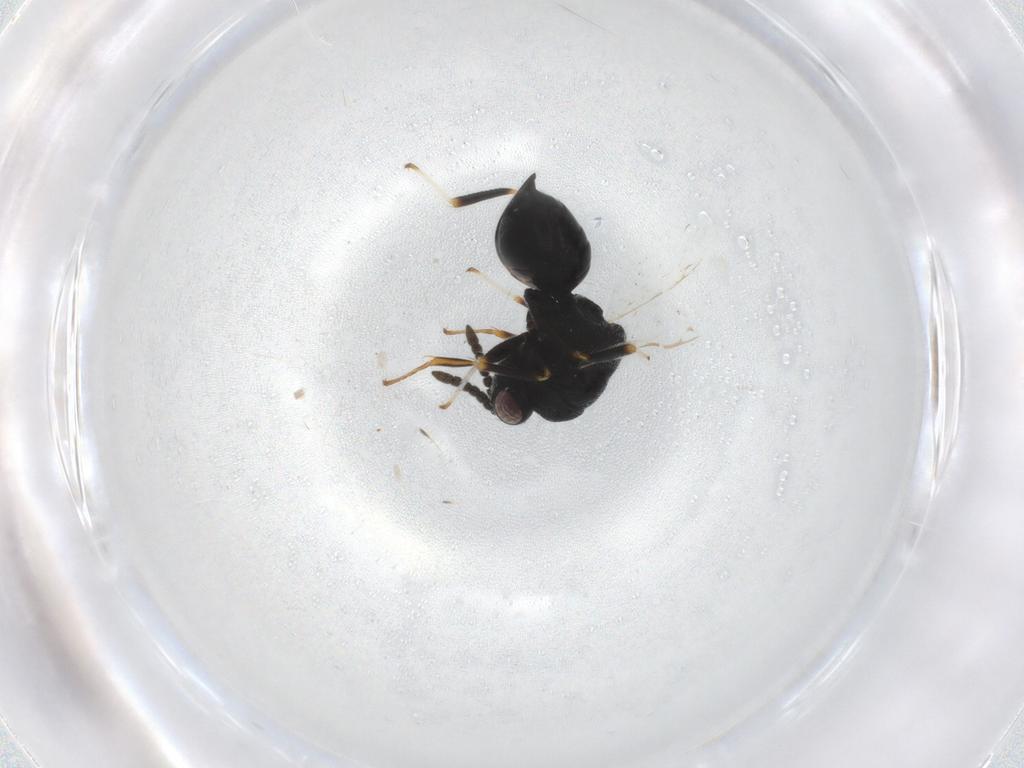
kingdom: Animalia
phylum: Arthropoda
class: Insecta
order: Hymenoptera
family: Eurytomidae
